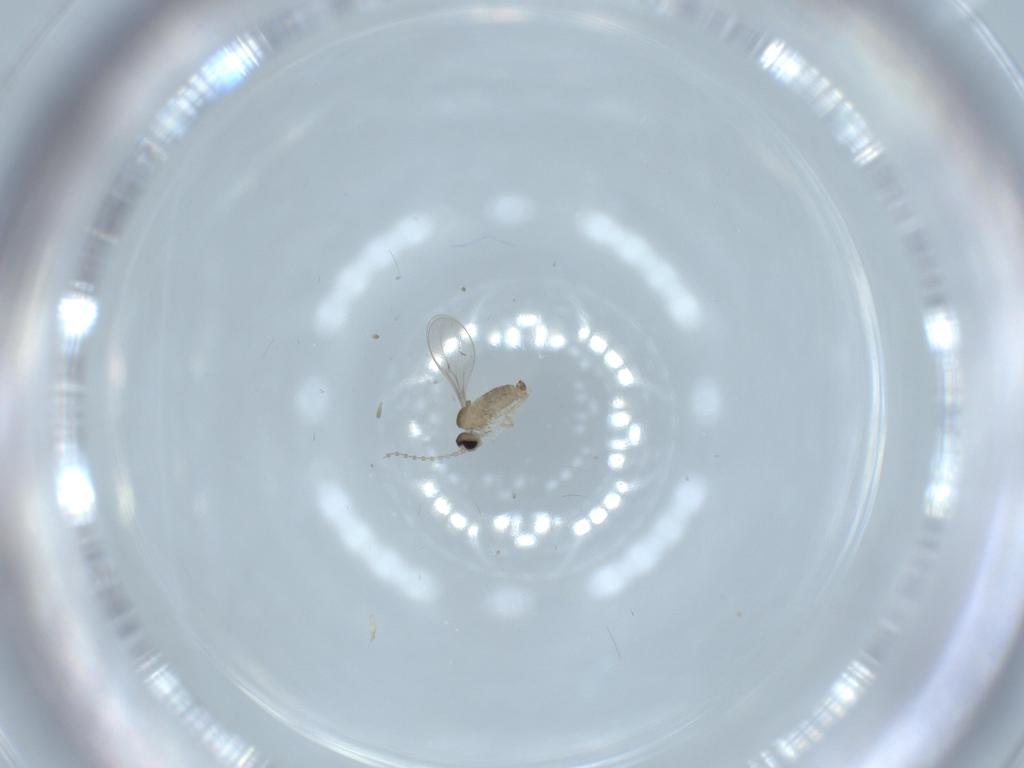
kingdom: Animalia
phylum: Arthropoda
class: Insecta
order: Diptera
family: Cecidomyiidae
